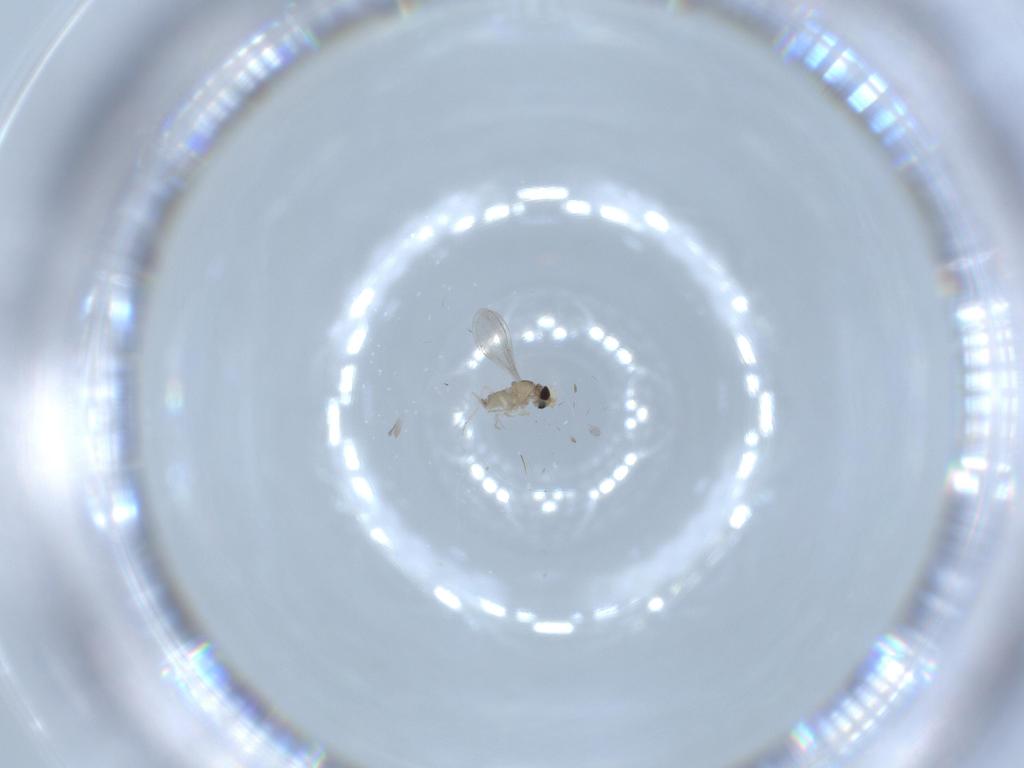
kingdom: Animalia
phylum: Arthropoda
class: Insecta
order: Diptera
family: Cecidomyiidae
